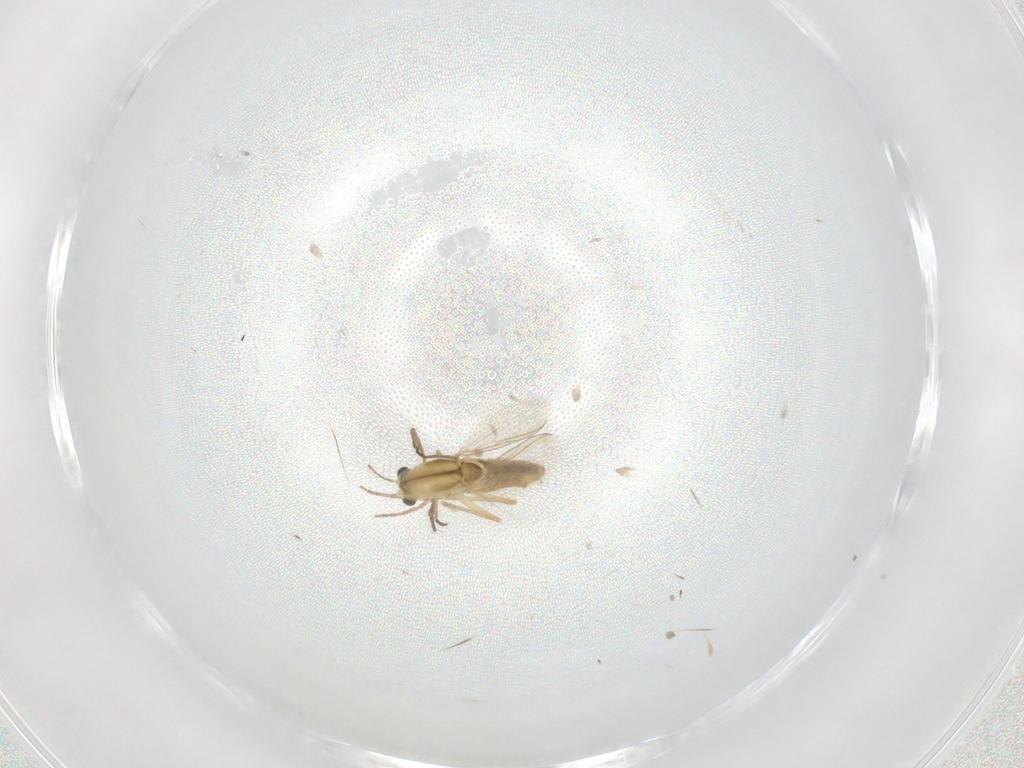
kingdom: Animalia
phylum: Arthropoda
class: Insecta
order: Diptera
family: Chironomidae
